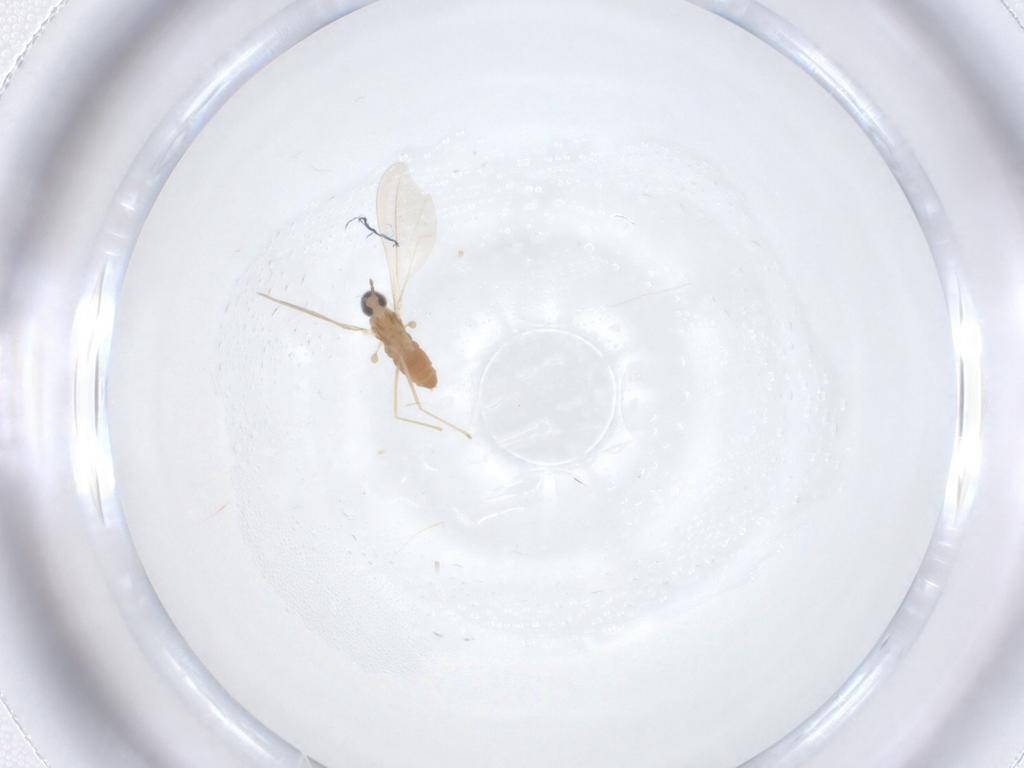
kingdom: Animalia
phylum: Arthropoda
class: Insecta
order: Diptera
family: Cecidomyiidae
